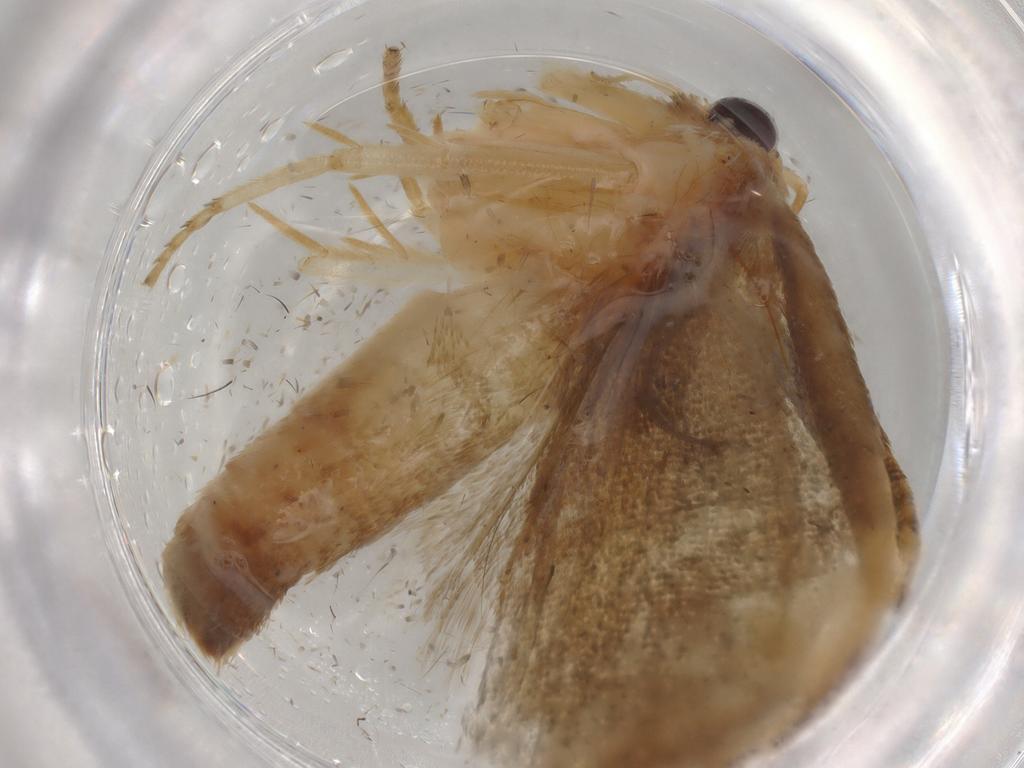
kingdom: Animalia
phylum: Arthropoda
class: Insecta
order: Lepidoptera
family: Tortricidae
